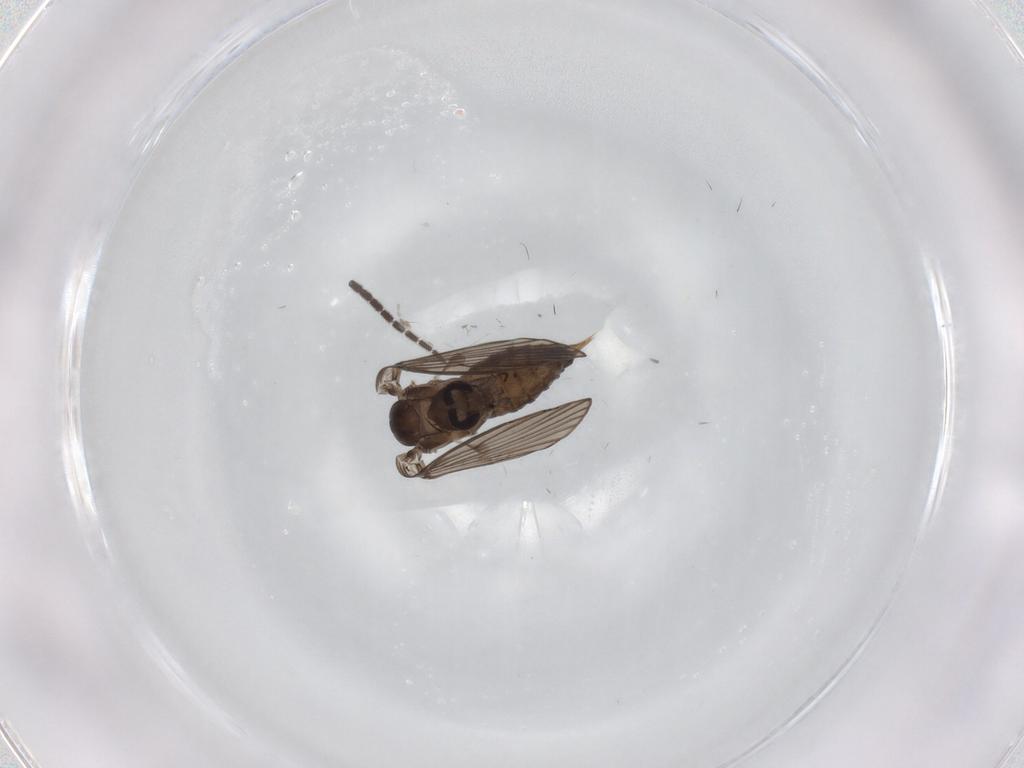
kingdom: Animalia
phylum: Arthropoda
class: Insecta
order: Diptera
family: Psychodidae
